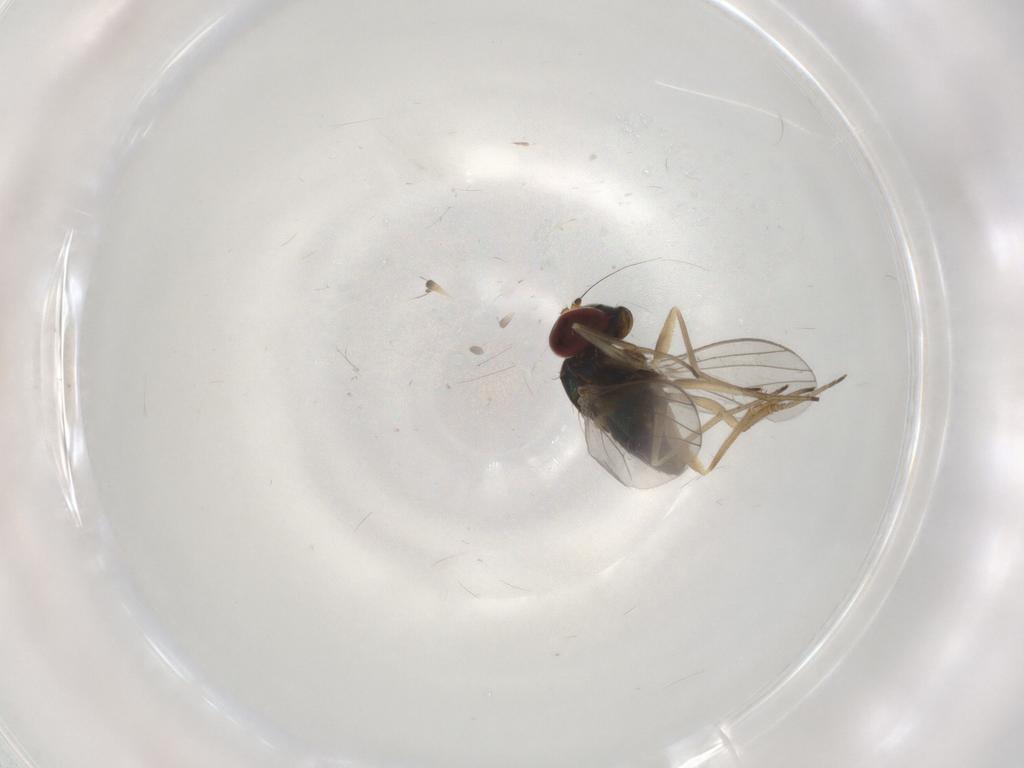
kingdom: Animalia
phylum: Arthropoda
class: Insecta
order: Diptera
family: Dolichopodidae
